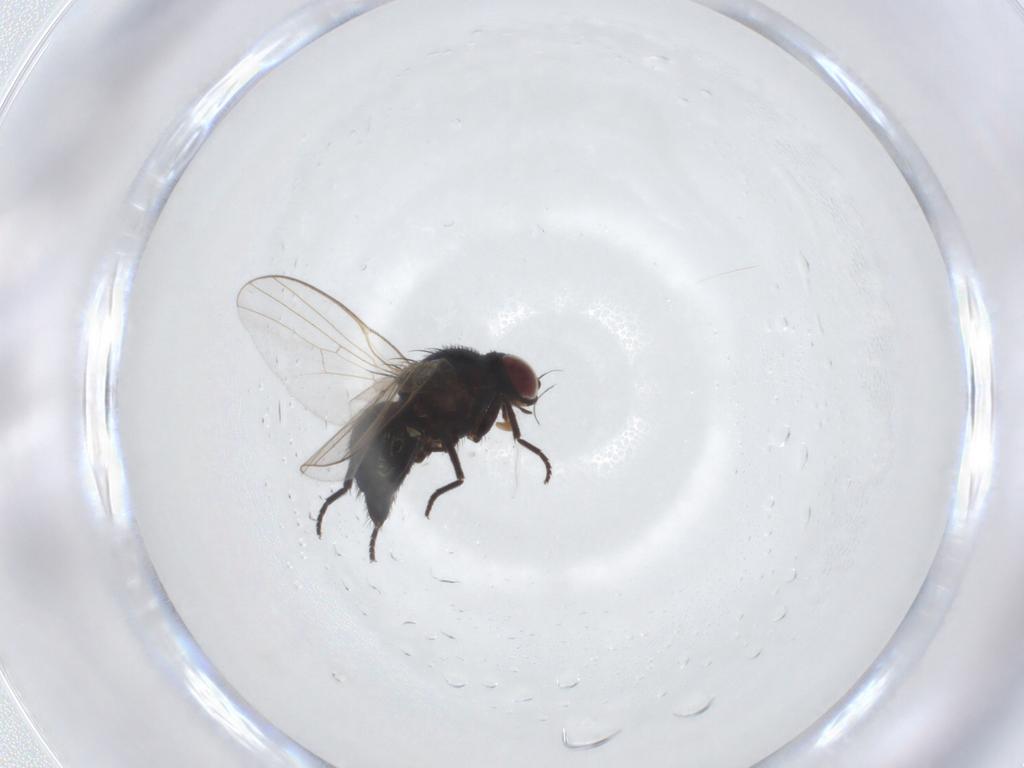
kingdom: Animalia
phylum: Arthropoda
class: Insecta
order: Diptera
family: Agromyzidae
